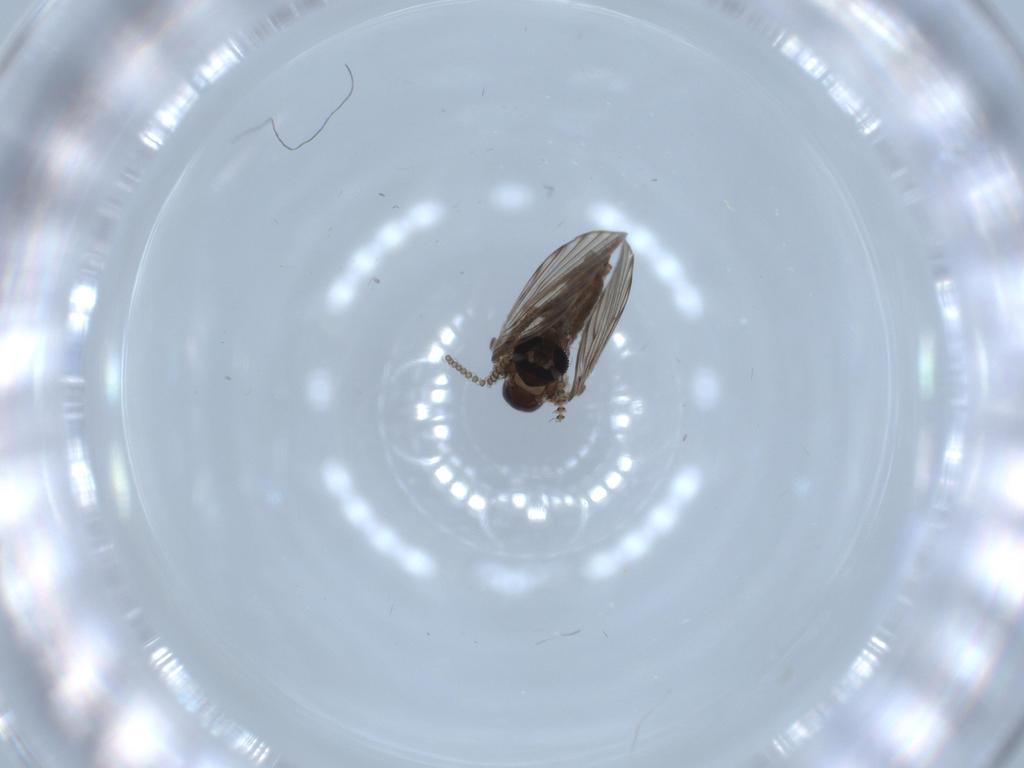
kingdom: Animalia
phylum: Arthropoda
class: Insecta
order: Diptera
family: Psychodidae
